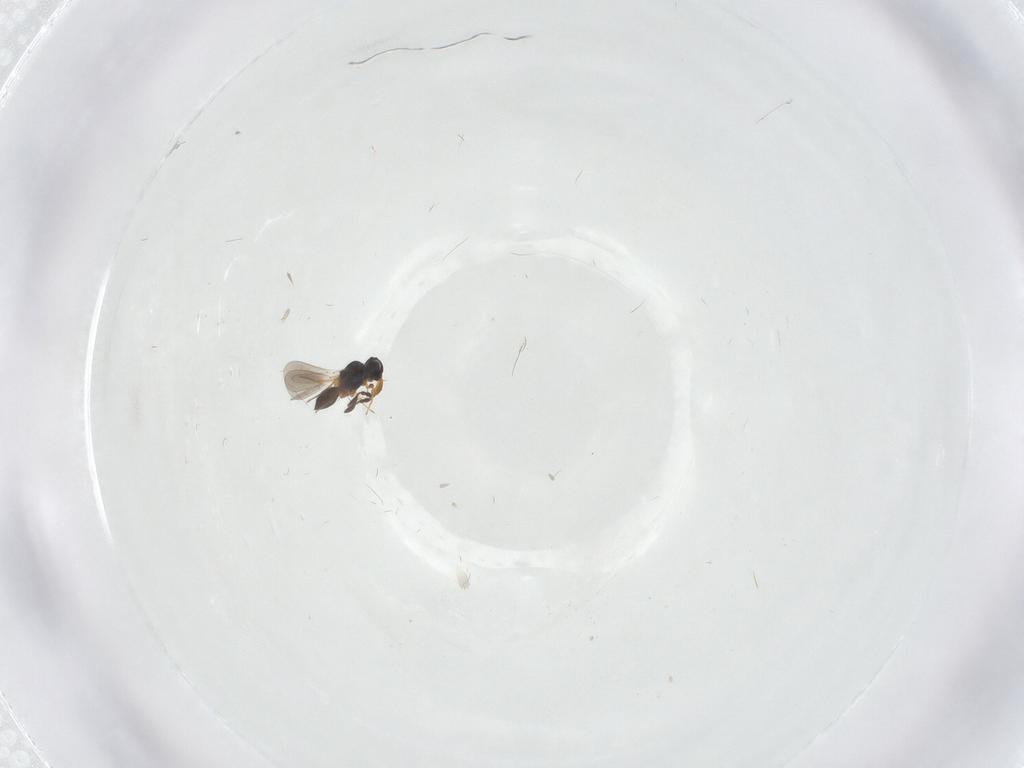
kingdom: Animalia
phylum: Arthropoda
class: Insecta
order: Hymenoptera
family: Platygastridae
